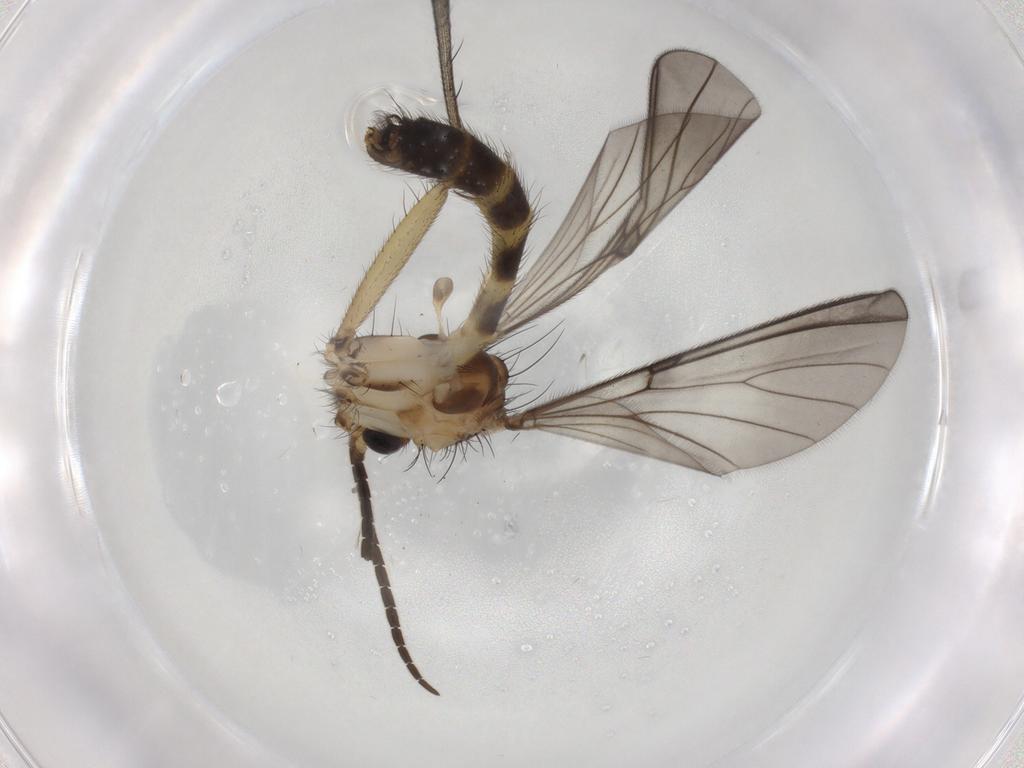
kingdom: Animalia
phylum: Arthropoda
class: Insecta
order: Diptera
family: Phoridae
